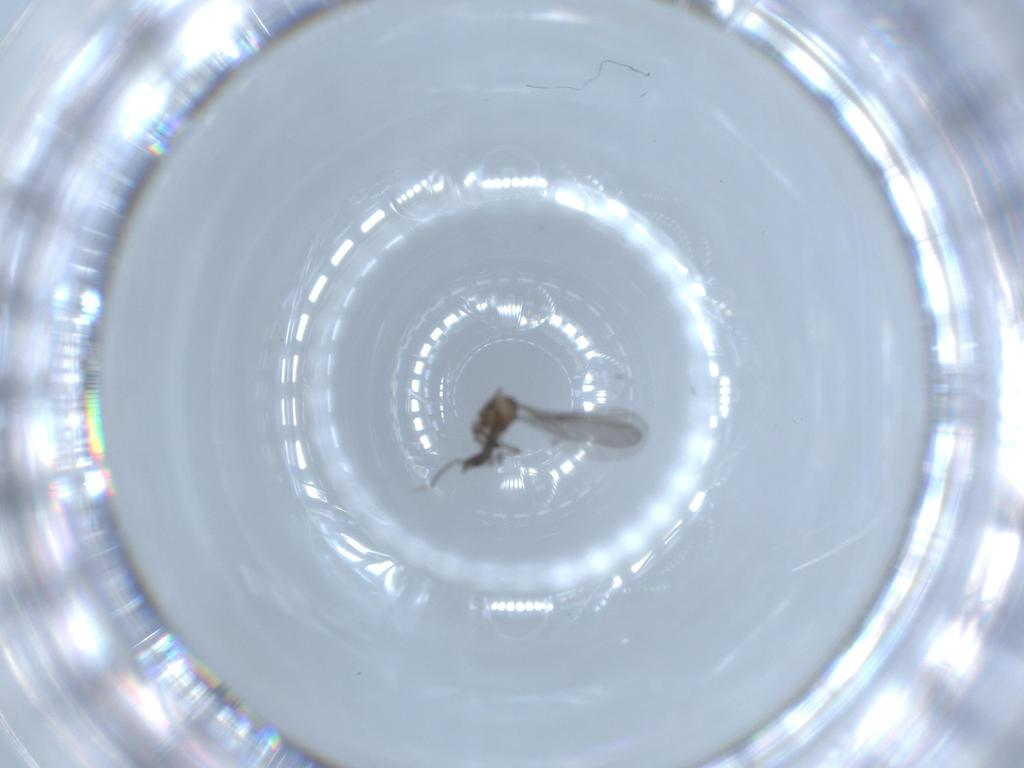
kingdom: Animalia
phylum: Arthropoda
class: Insecta
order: Diptera
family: Sciaridae
